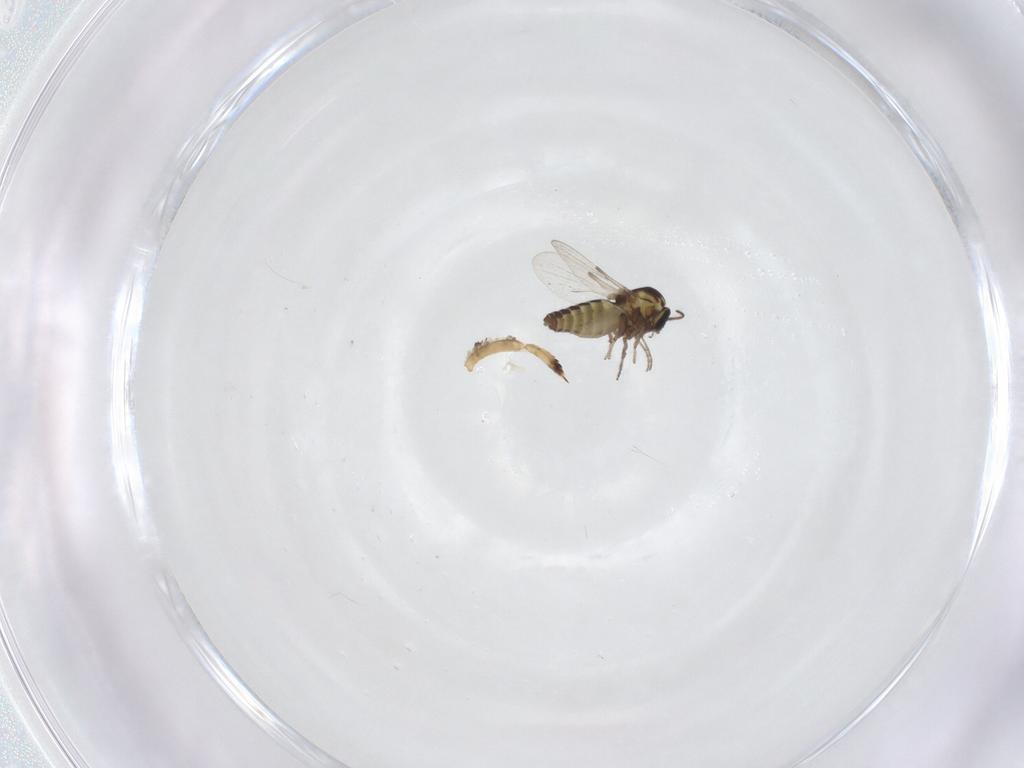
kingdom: Animalia
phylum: Arthropoda
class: Insecta
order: Diptera
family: Ceratopogonidae
